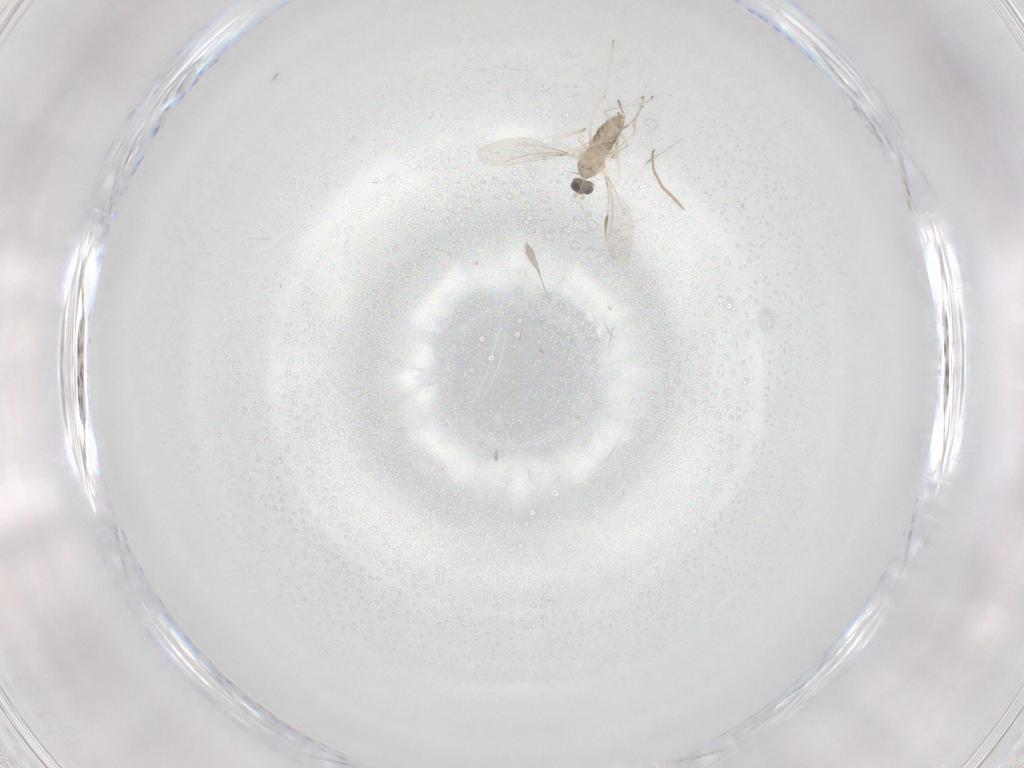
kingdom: Animalia
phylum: Arthropoda
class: Insecta
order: Diptera
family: Cecidomyiidae
